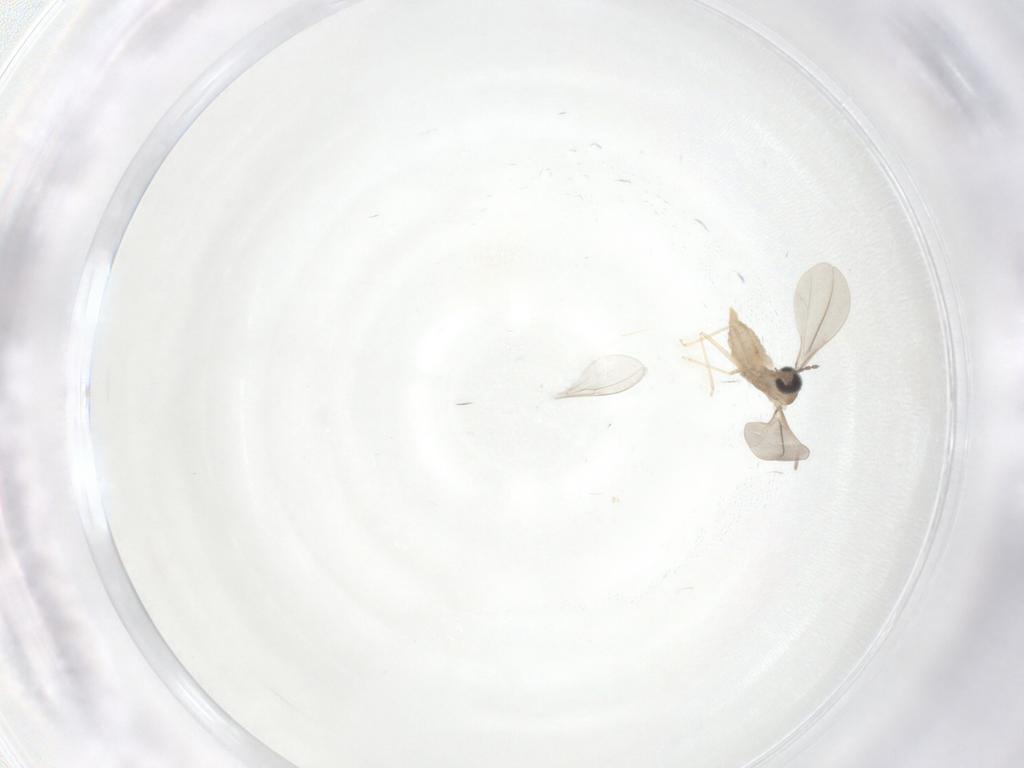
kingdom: Animalia
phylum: Arthropoda
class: Insecta
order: Diptera
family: Cecidomyiidae
